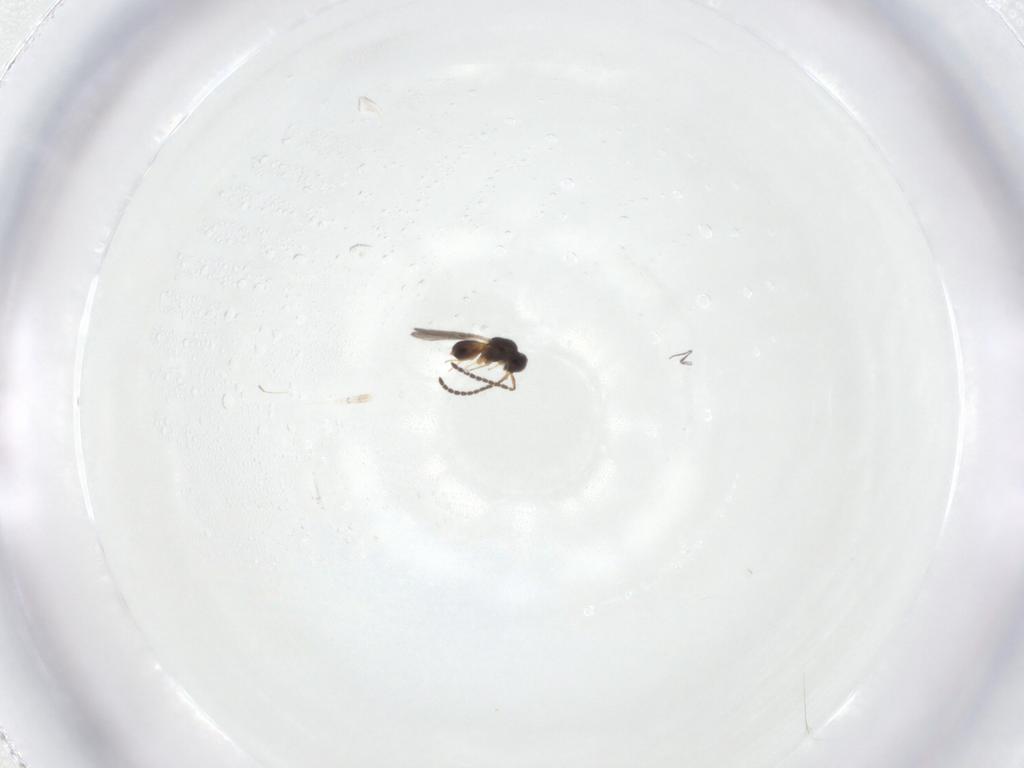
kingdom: Animalia
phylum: Arthropoda
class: Insecta
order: Hymenoptera
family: Ceraphronidae
